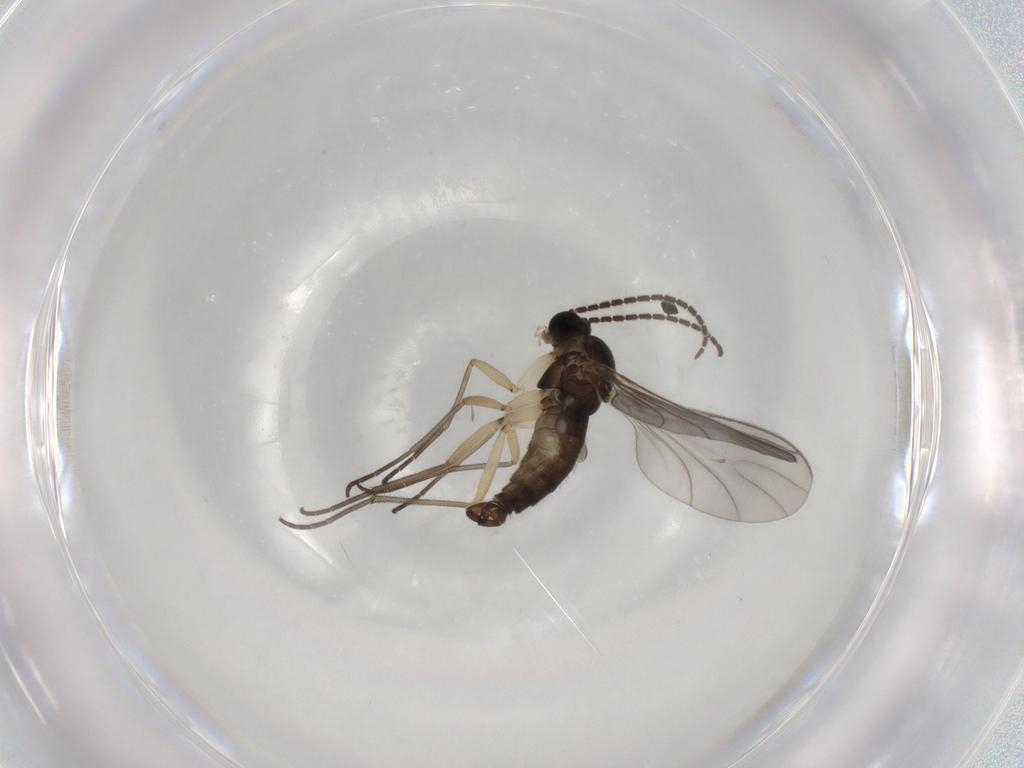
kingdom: Animalia
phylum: Arthropoda
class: Insecta
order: Diptera
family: Sciaridae
